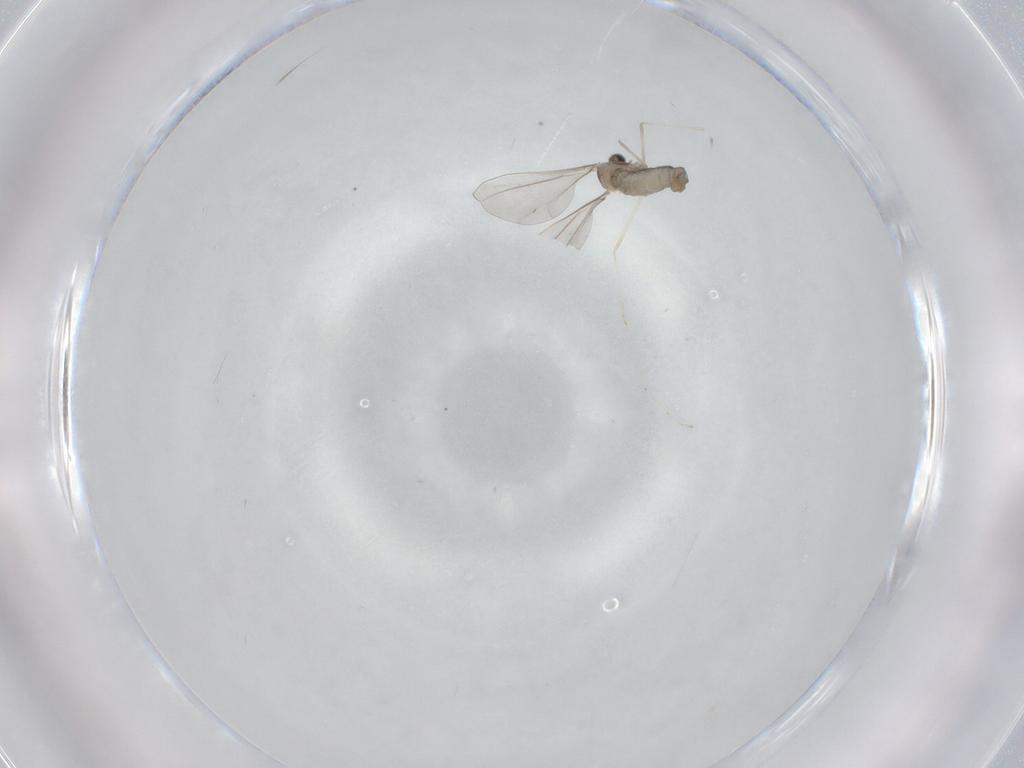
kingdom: Animalia
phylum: Arthropoda
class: Insecta
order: Diptera
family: Cecidomyiidae
